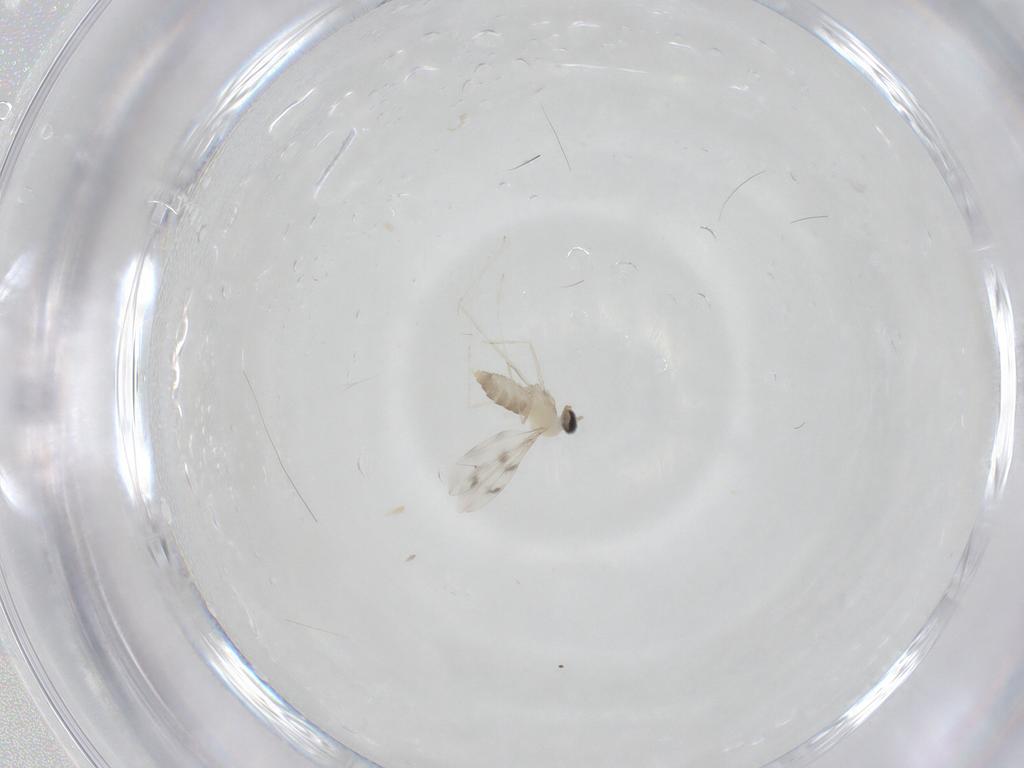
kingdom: Animalia
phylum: Arthropoda
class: Insecta
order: Diptera
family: Cecidomyiidae
